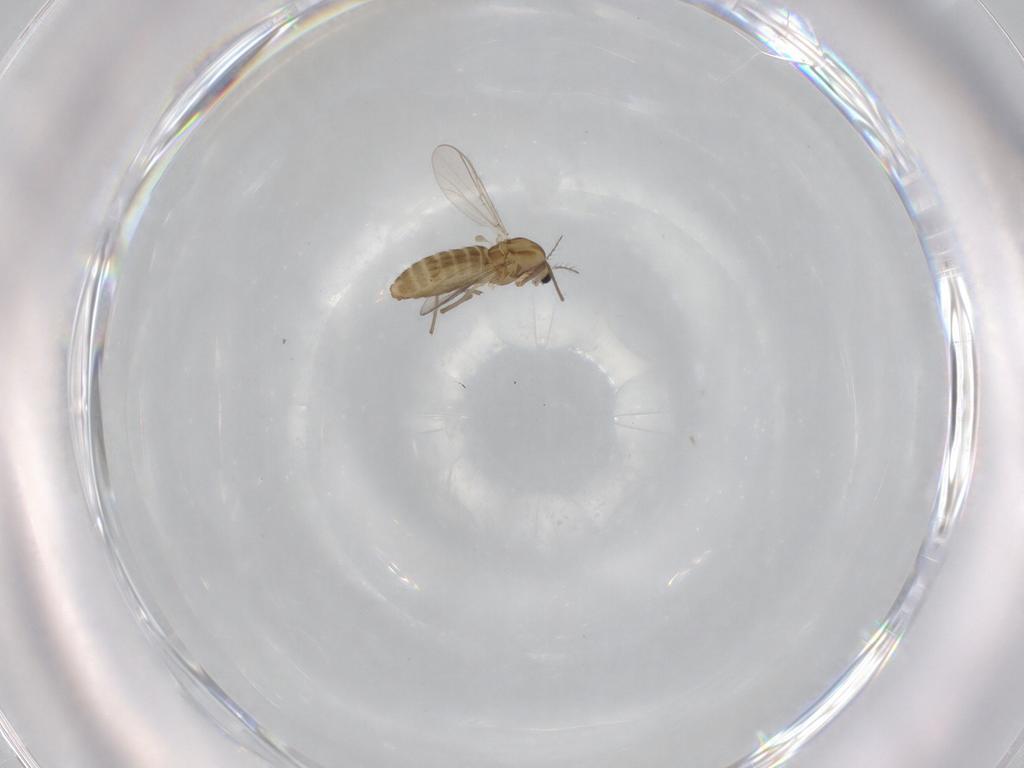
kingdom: Animalia
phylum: Arthropoda
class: Insecta
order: Diptera
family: Chironomidae
